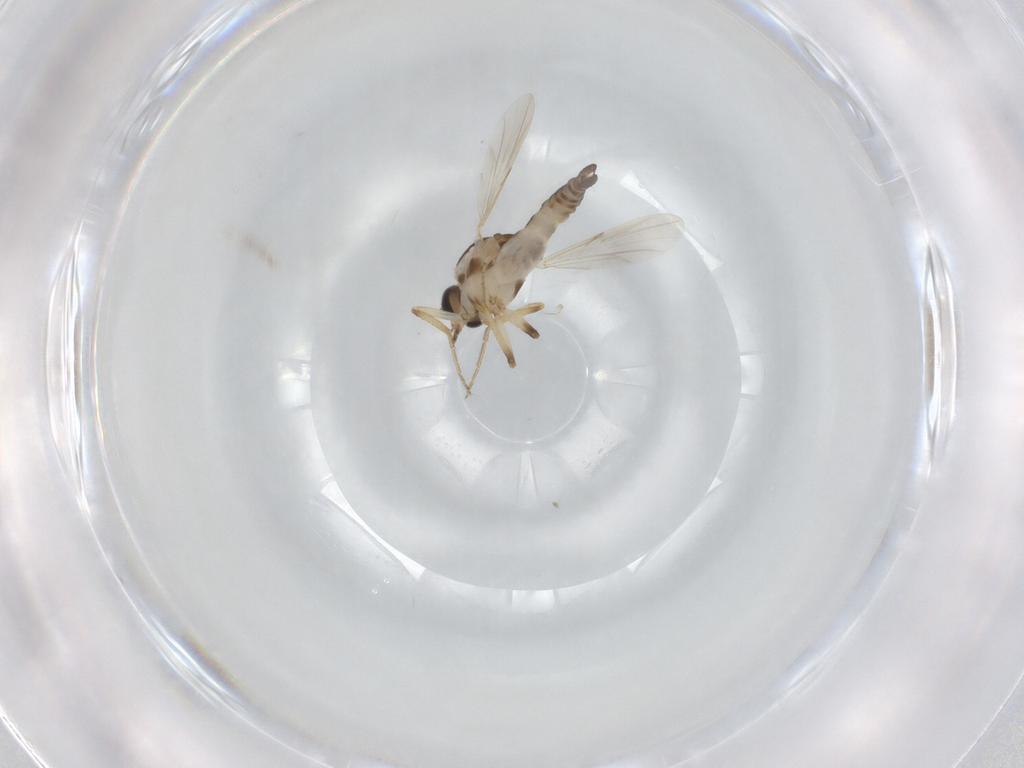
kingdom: Animalia
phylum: Arthropoda
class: Insecta
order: Diptera
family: Ceratopogonidae
